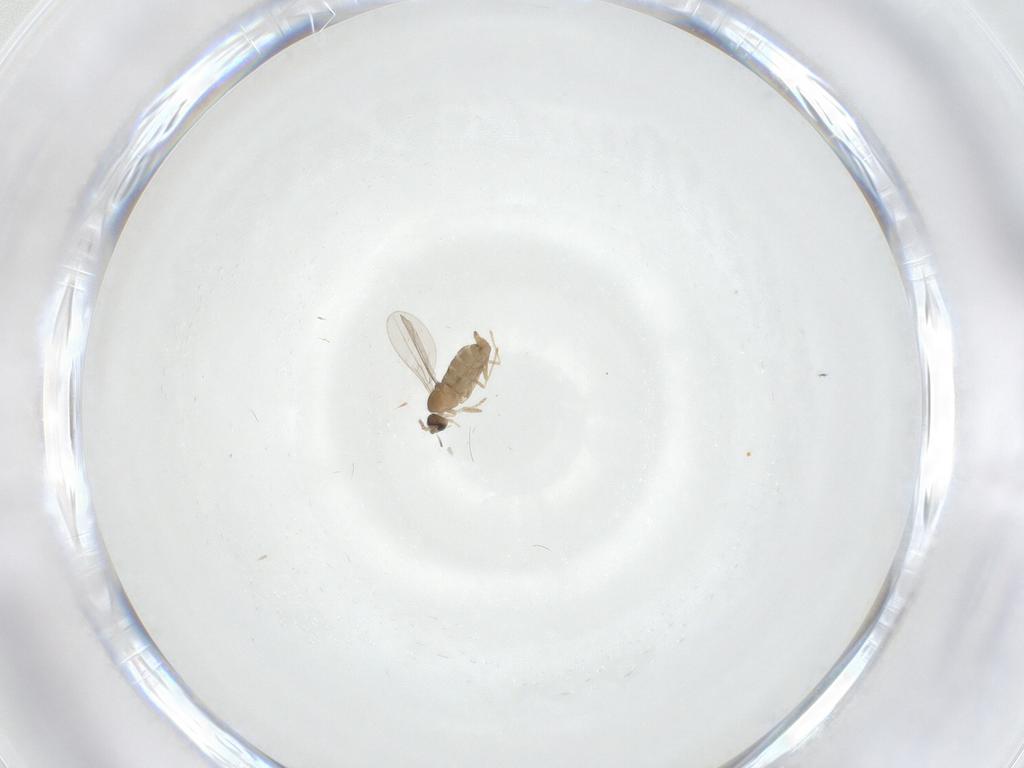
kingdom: Animalia
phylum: Arthropoda
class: Insecta
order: Diptera
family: Cecidomyiidae
